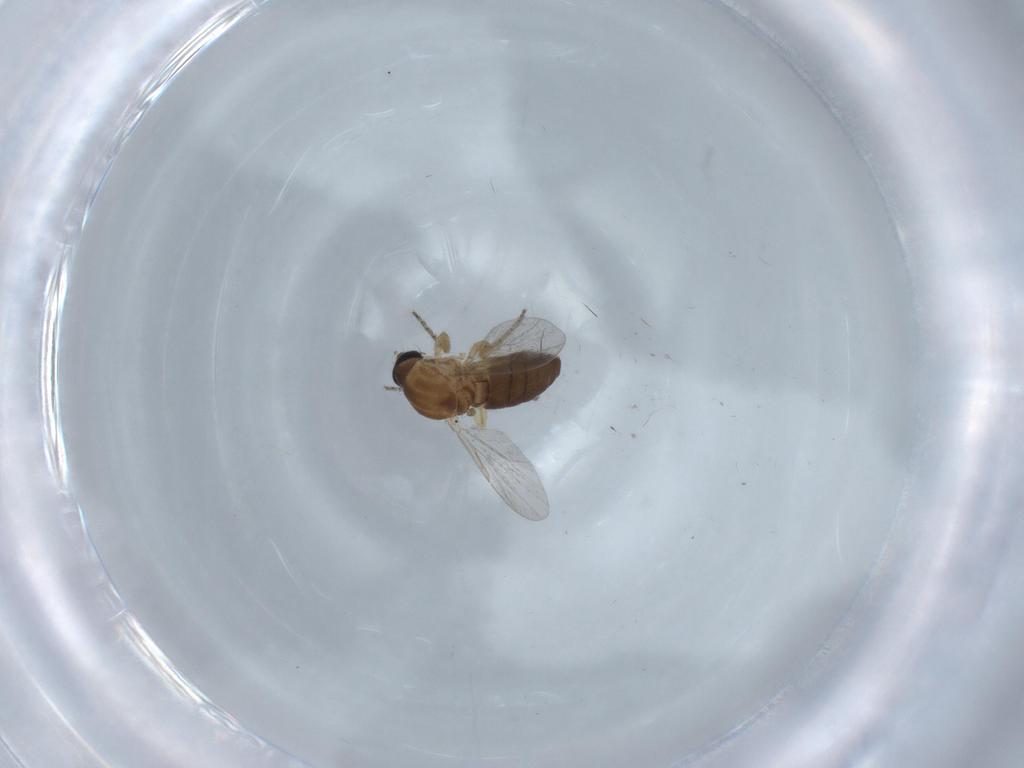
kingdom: Animalia
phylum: Arthropoda
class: Insecta
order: Diptera
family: Ceratopogonidae
